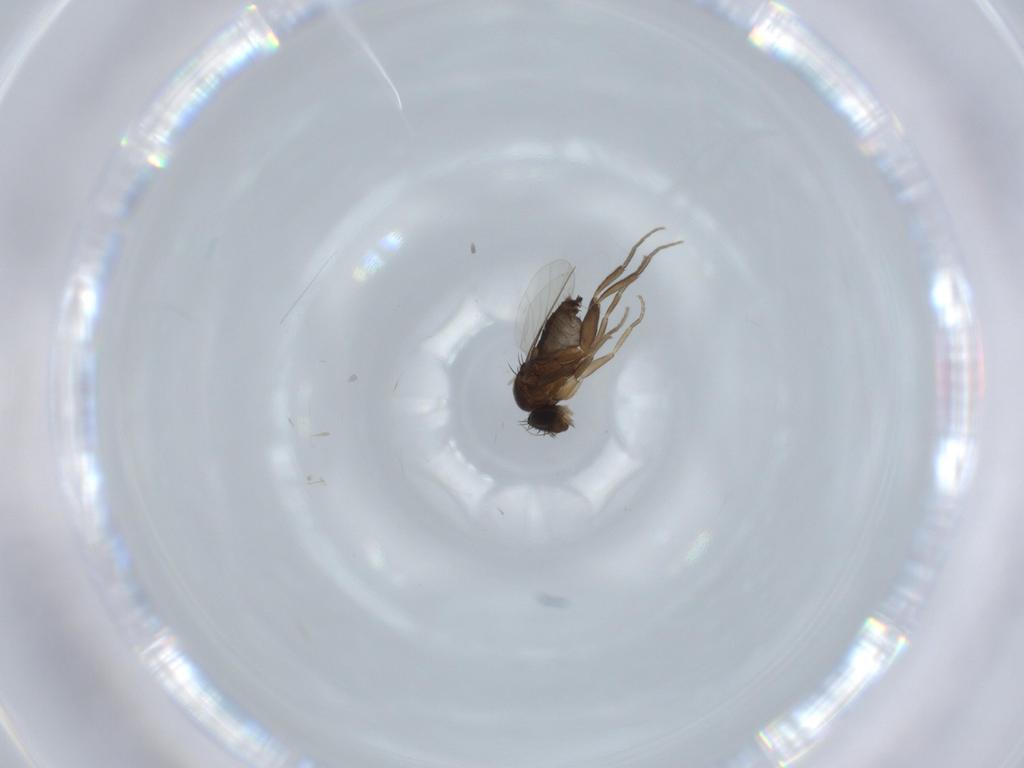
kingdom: Animalia
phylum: Arthropoda
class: Insecta
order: Diptera
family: Phoridae
